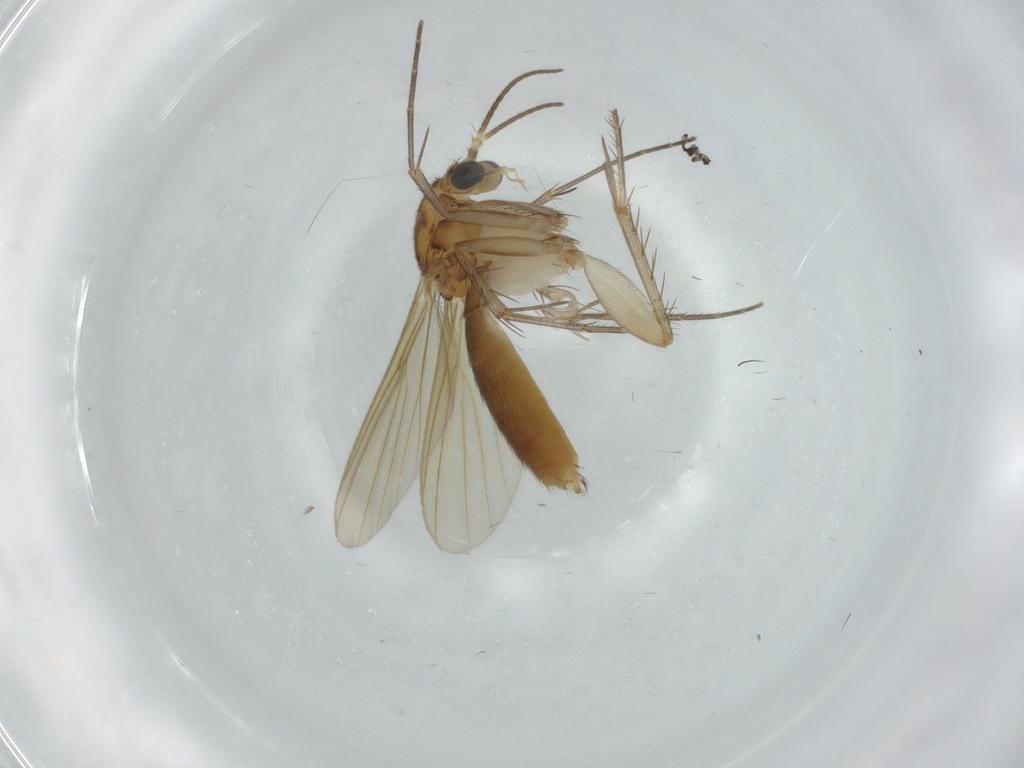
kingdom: Animalia
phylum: Arthropoda
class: Insecta
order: Diptera
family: Mycetophilidae
